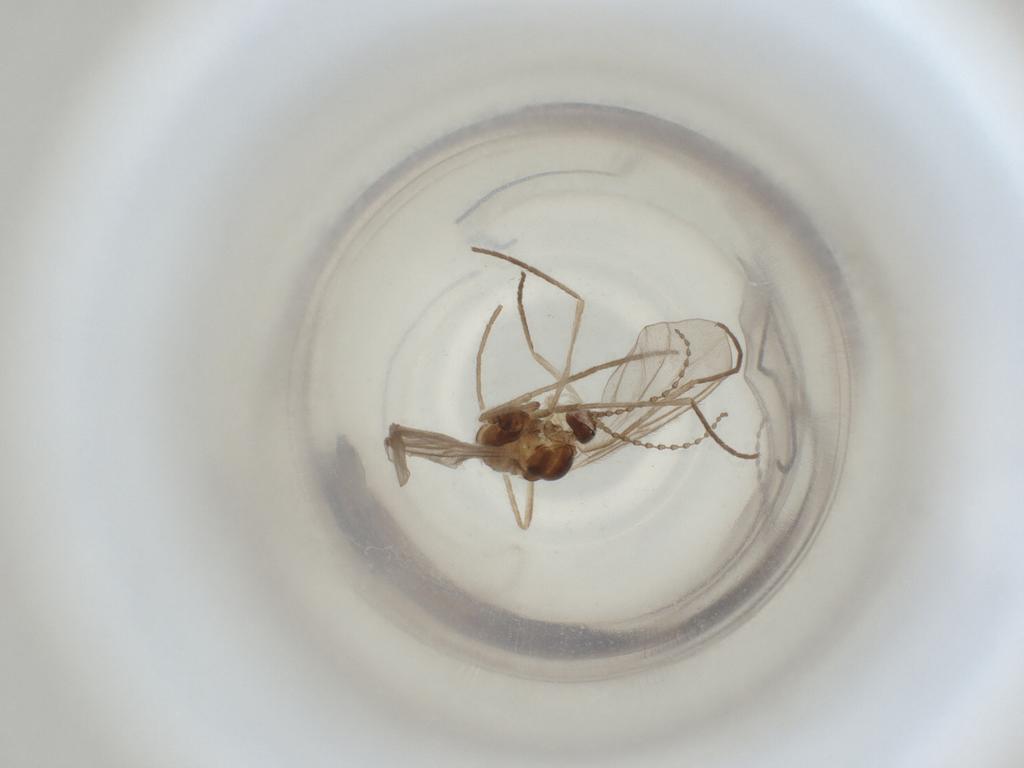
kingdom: Animalia
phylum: Arthropoda
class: Insecta
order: Diptera
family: Cecidomyiidae
